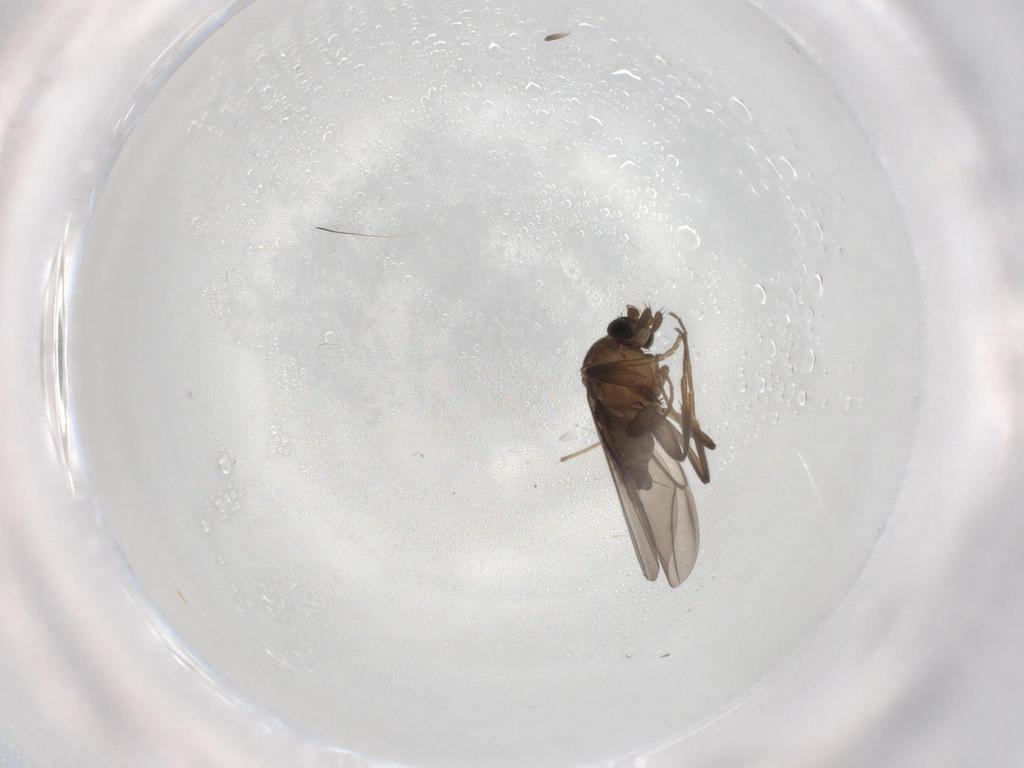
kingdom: Animalia
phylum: Arthropoda
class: Insecta
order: Diptera
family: Phoridae
